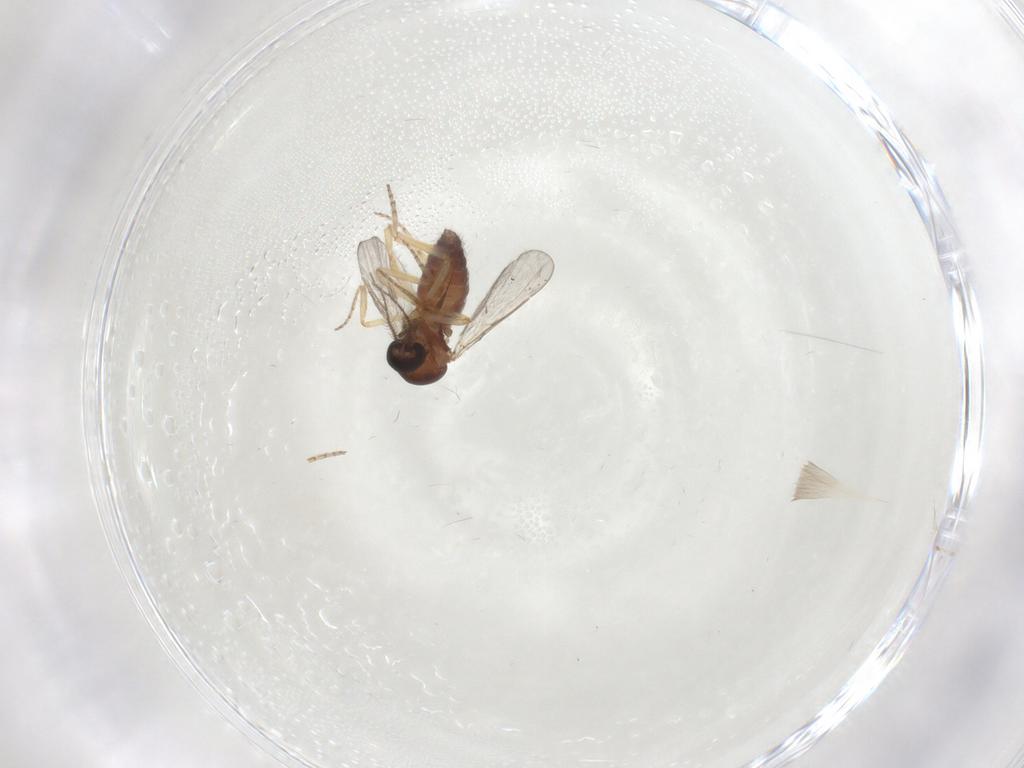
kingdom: Animalia
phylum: Arthropoda
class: Insecta
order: Diptera
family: Ceratopogonidae
